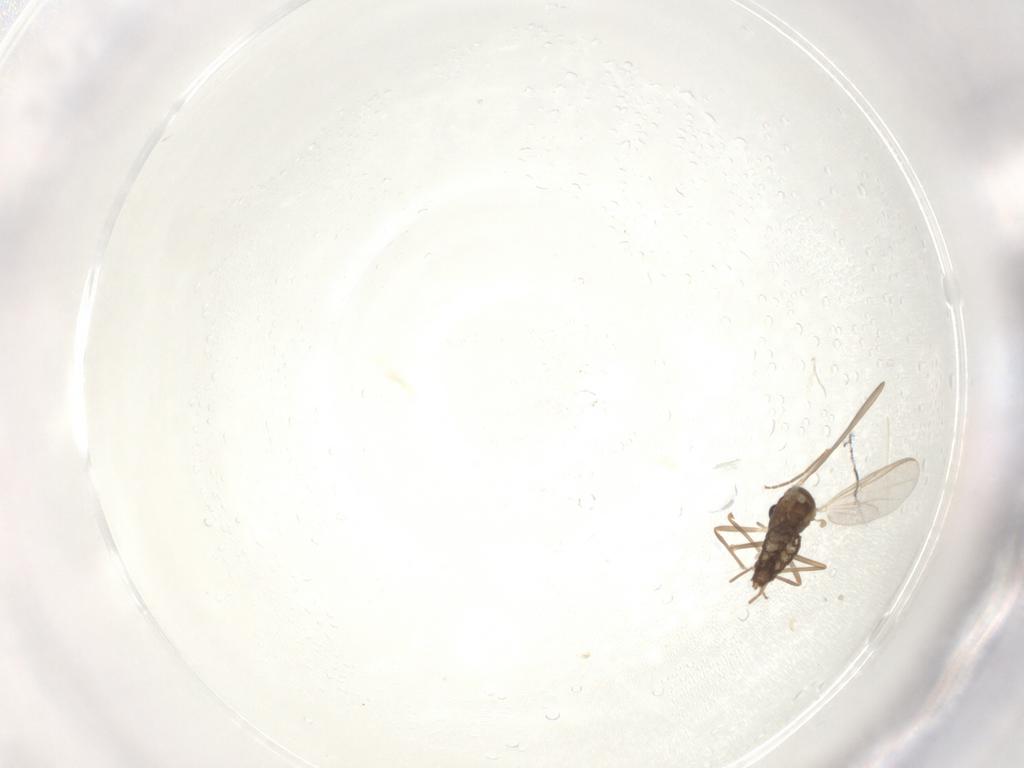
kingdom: Animalia
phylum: Arthropoda
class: Insecta
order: Diptera
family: Chironomidae
